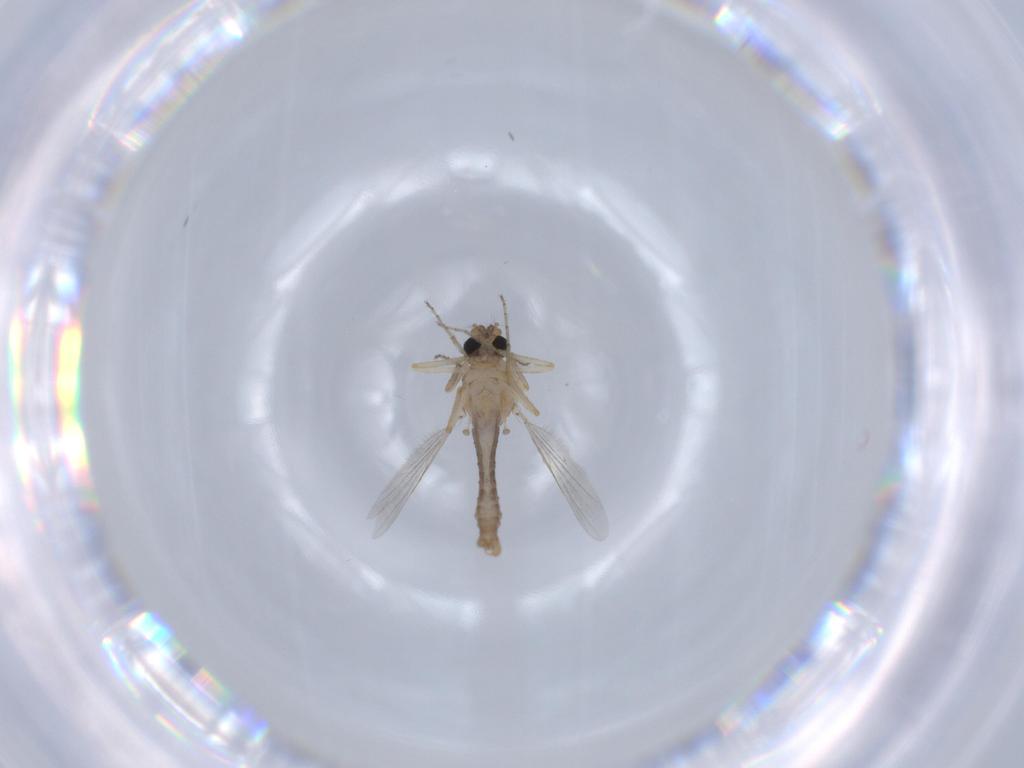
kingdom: Animalia
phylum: Arthropoda
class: Insecta
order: Diptera
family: Ceratopogonidae
